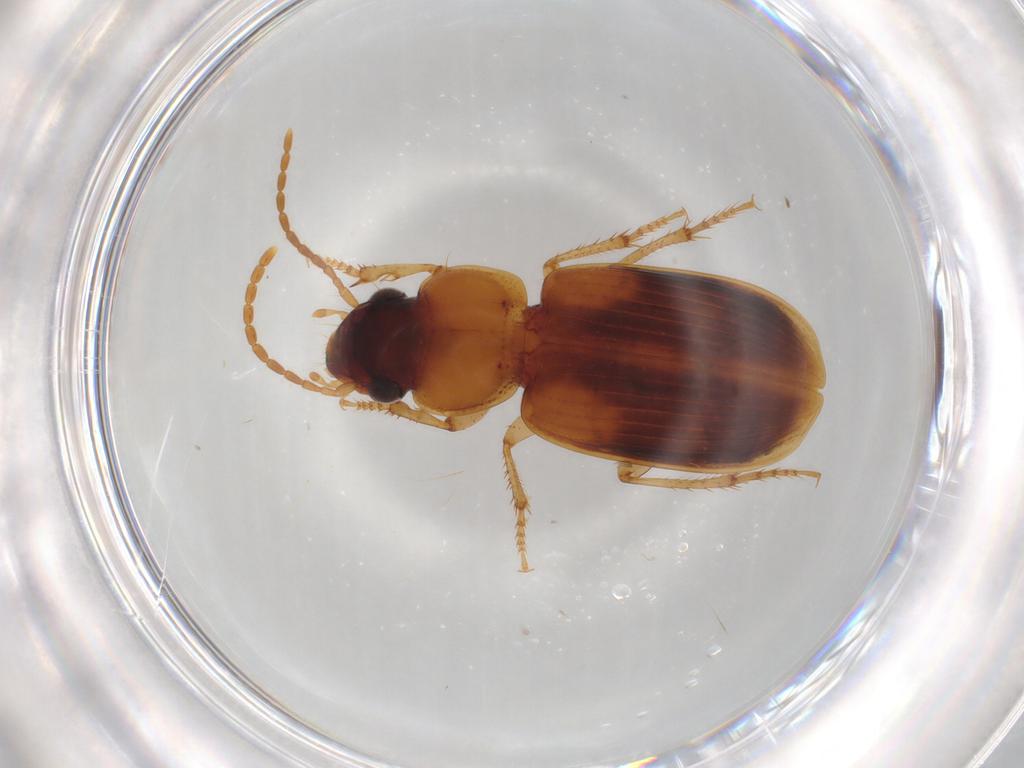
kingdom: Animalia
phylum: Arthropoda
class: Insecta
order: Coleoptera
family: Carabidae
